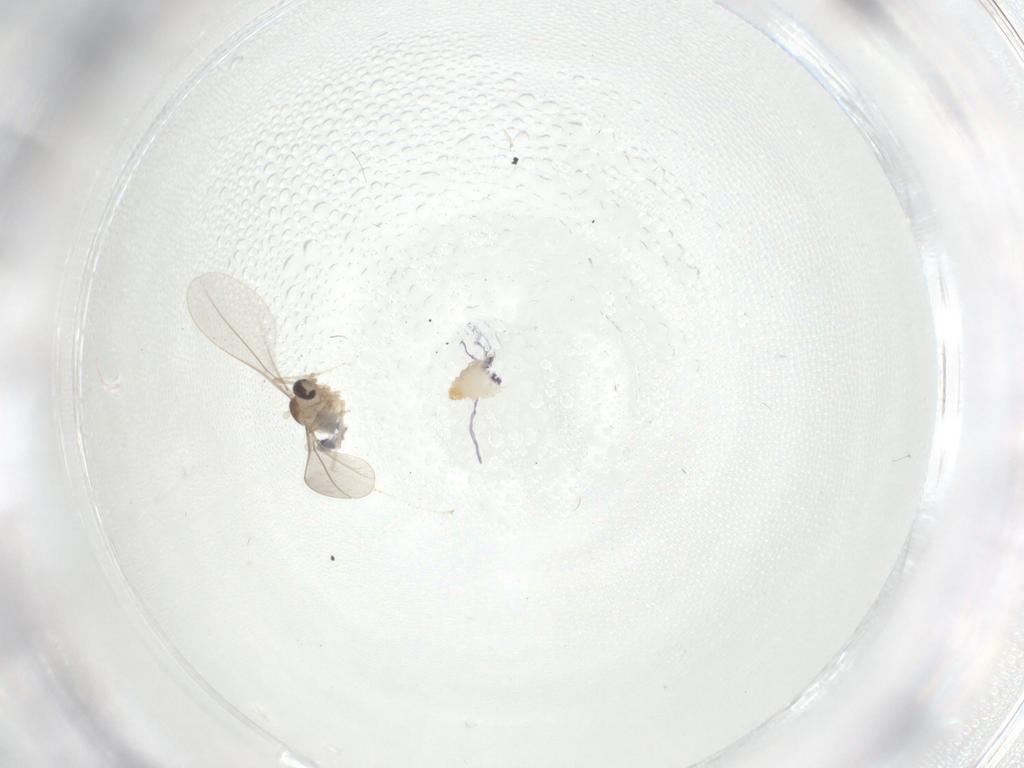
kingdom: Animalia
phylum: Arthropoda
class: Insecta
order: Diptera
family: Cecidomyiidae
